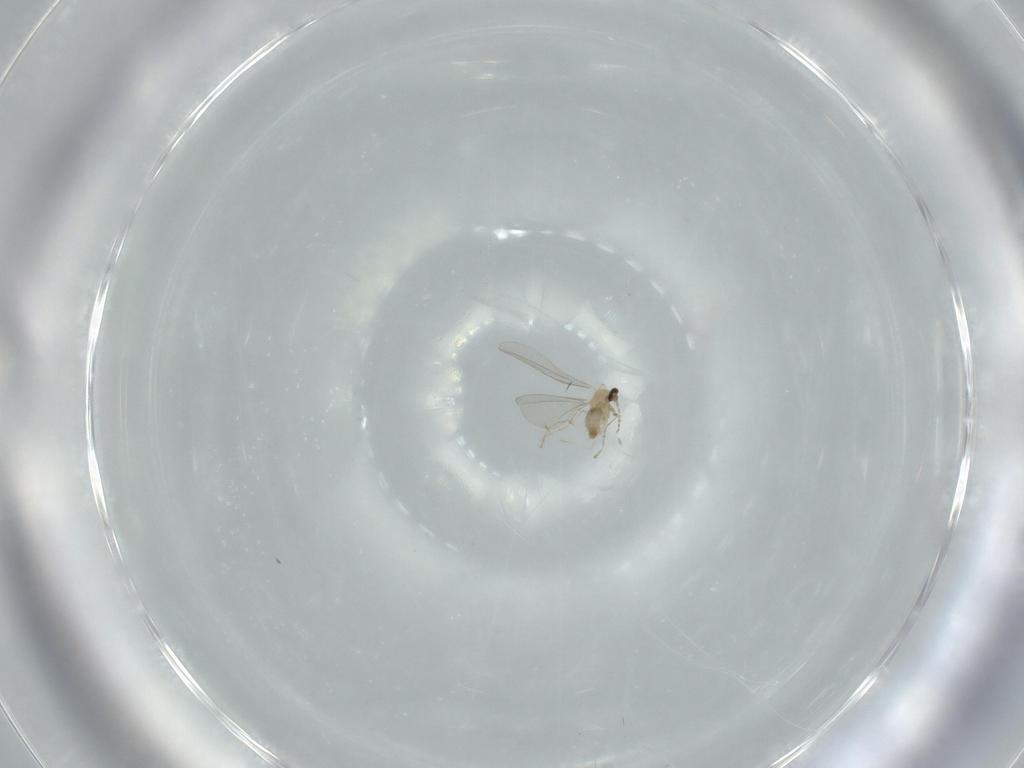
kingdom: Animalia
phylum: Arthropoda
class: Insecta
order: Diptera
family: Cecidomyiidae
